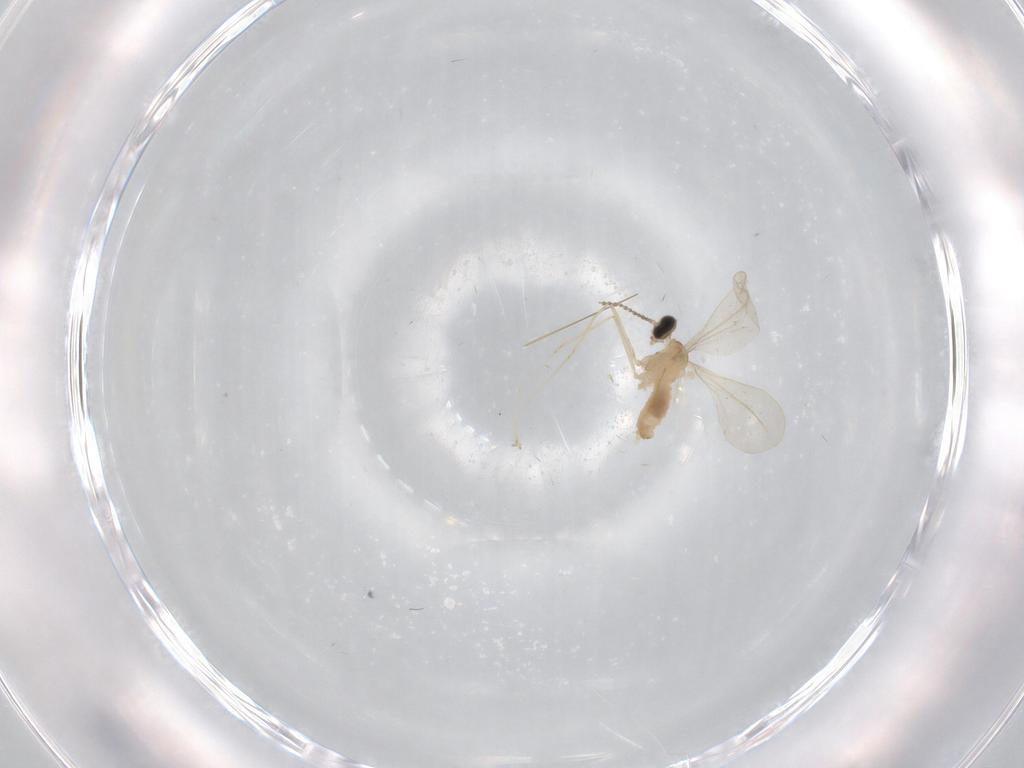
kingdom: Animalia
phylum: Arthropoda
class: Insecta
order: Diptera
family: Cecidomyiidae
